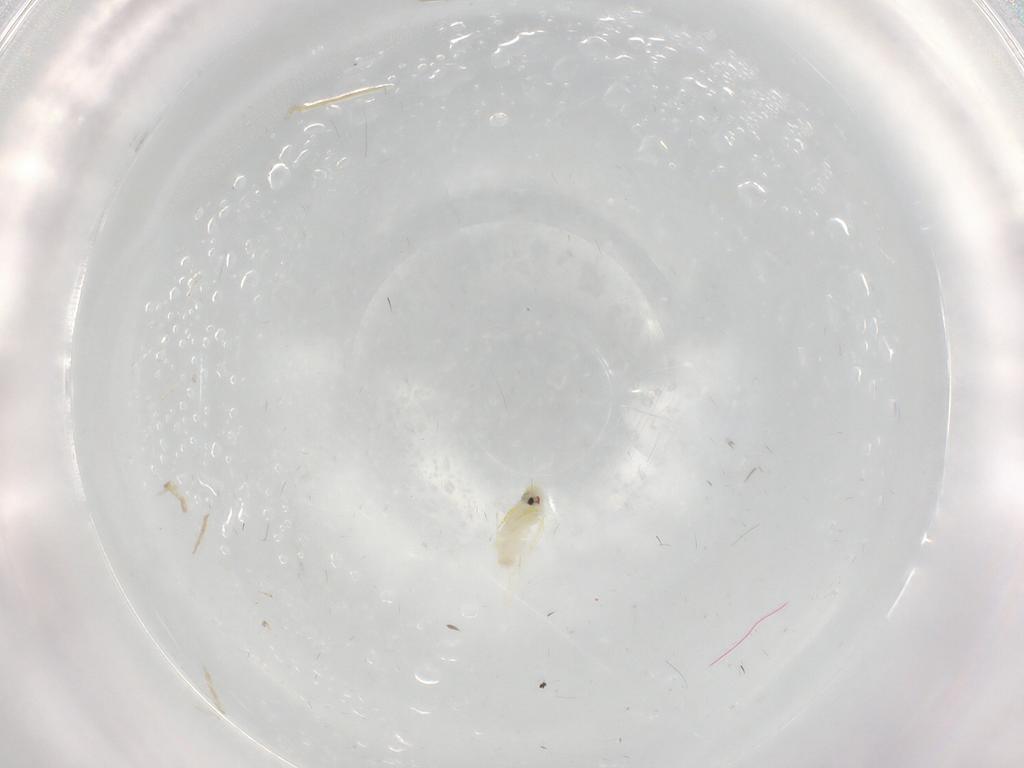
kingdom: Animalia
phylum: Arthropoda
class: Insecta
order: Hemiptera
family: Aleyrodidae
